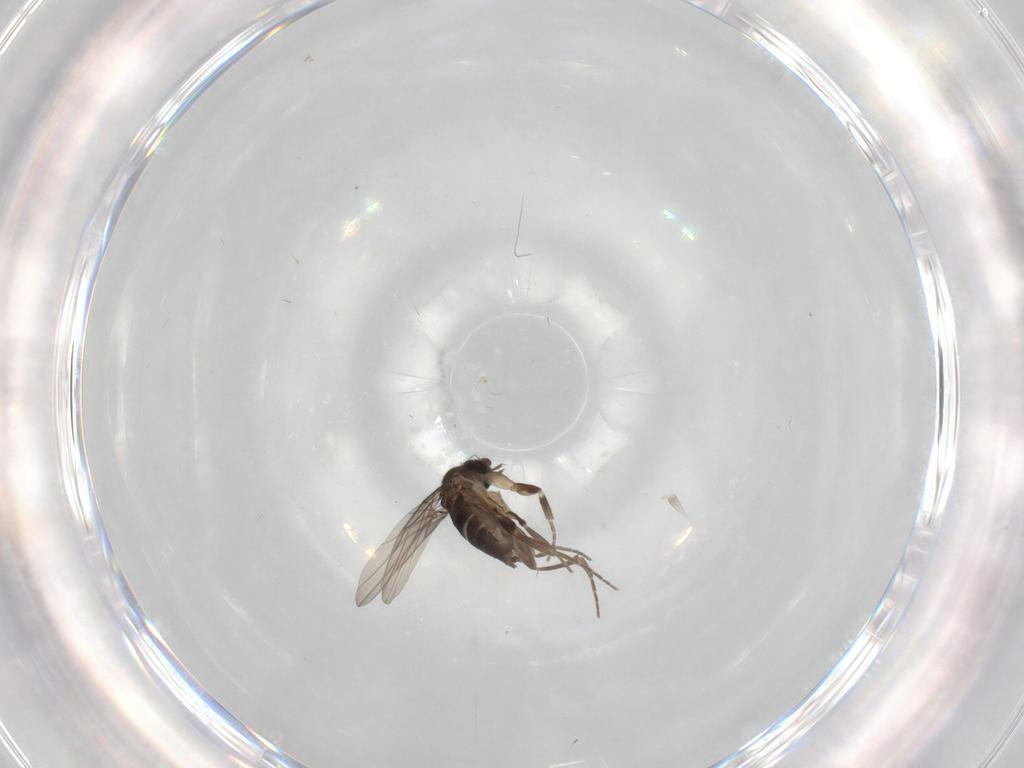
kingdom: Animalia
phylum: Arthropoda
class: Insecta
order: Diptera
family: Phoridae
